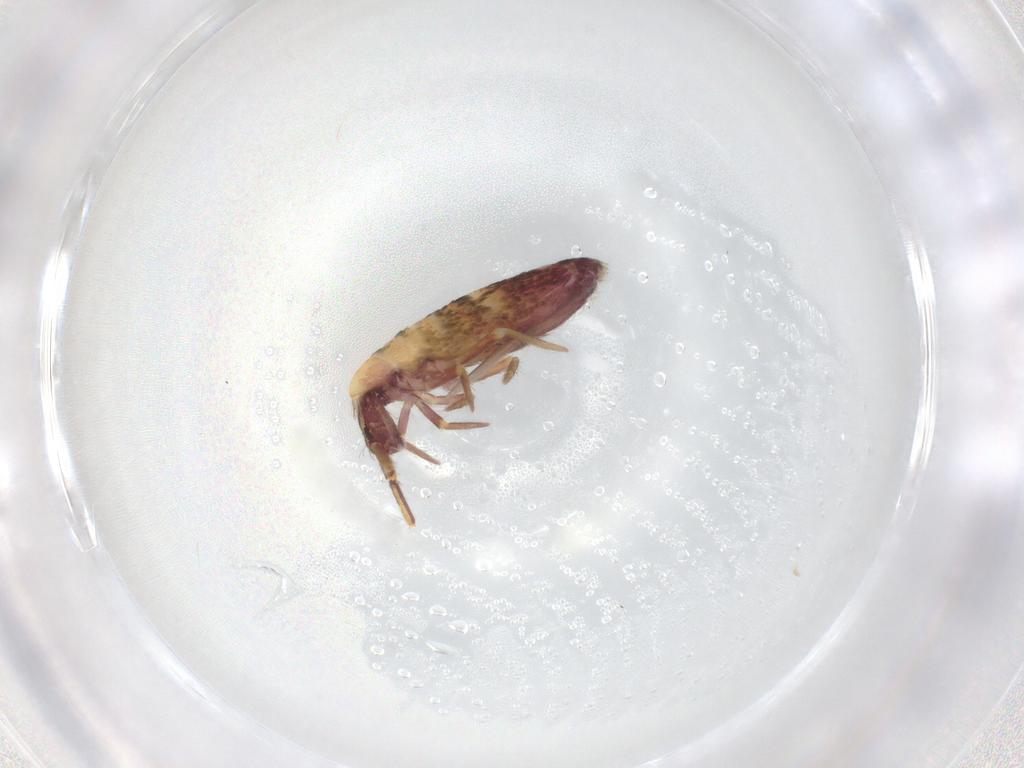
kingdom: Animalia
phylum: Arthropoda
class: Collembola
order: Entomobryomorpha
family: Entomobryidae
